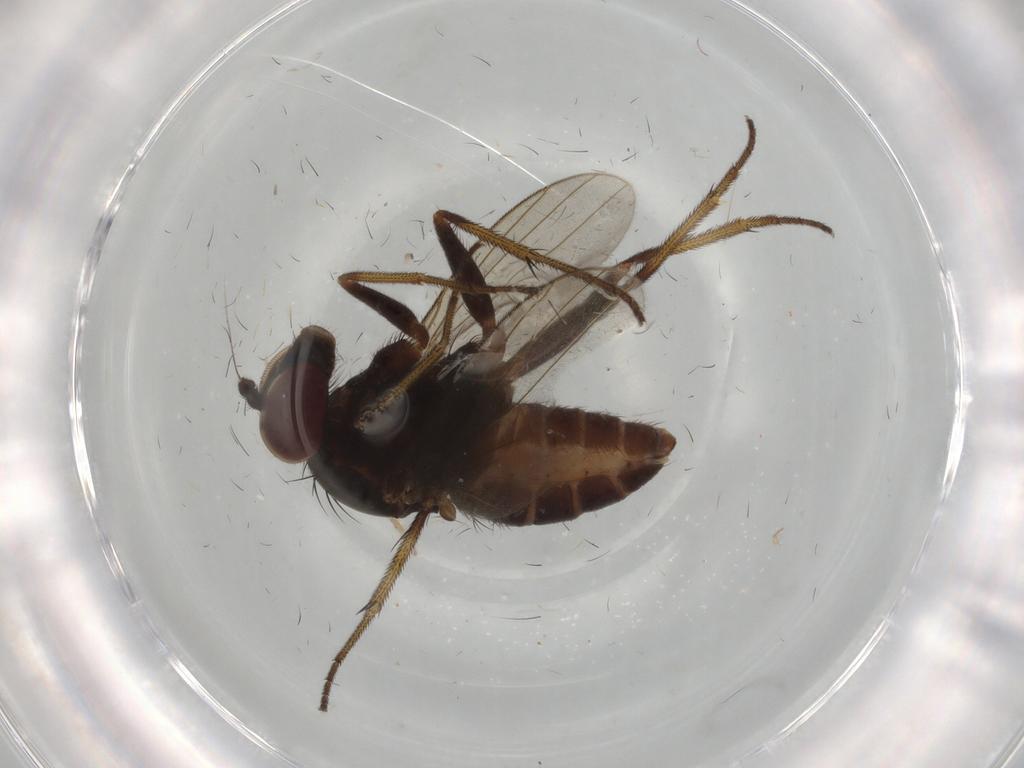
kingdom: Animalia
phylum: Arthropoda
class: Insecta
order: Diptera
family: Dolichopodidae
